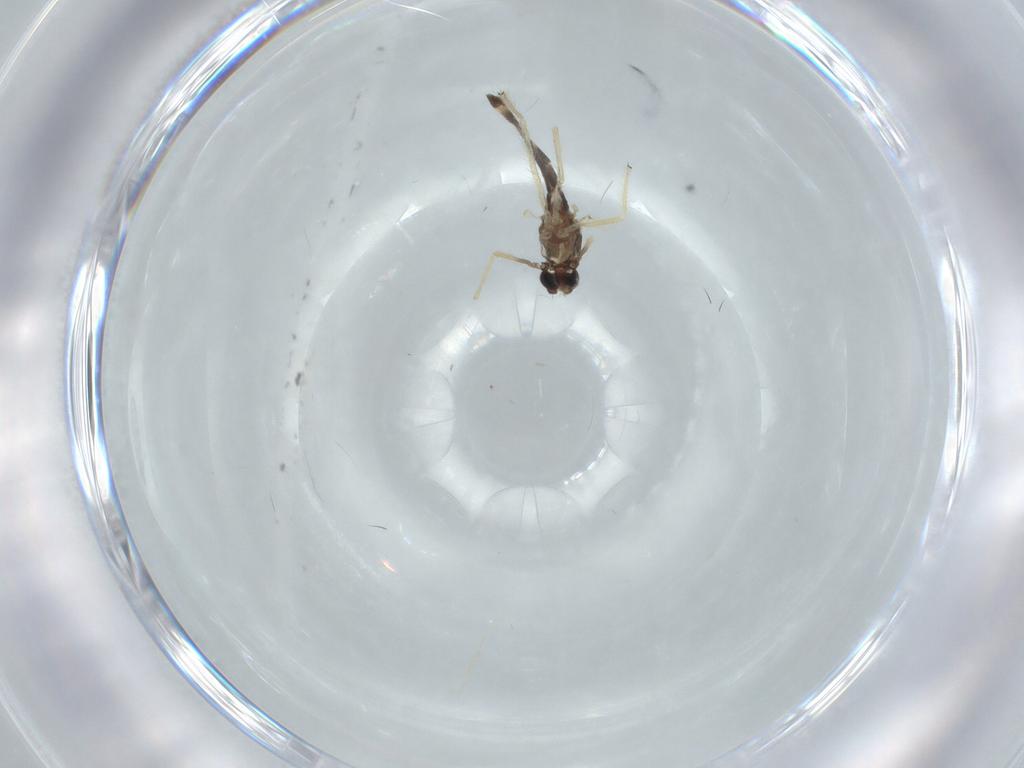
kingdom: Animalia
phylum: Arthropoda
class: Insecta
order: Diptera
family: Chironomidae
